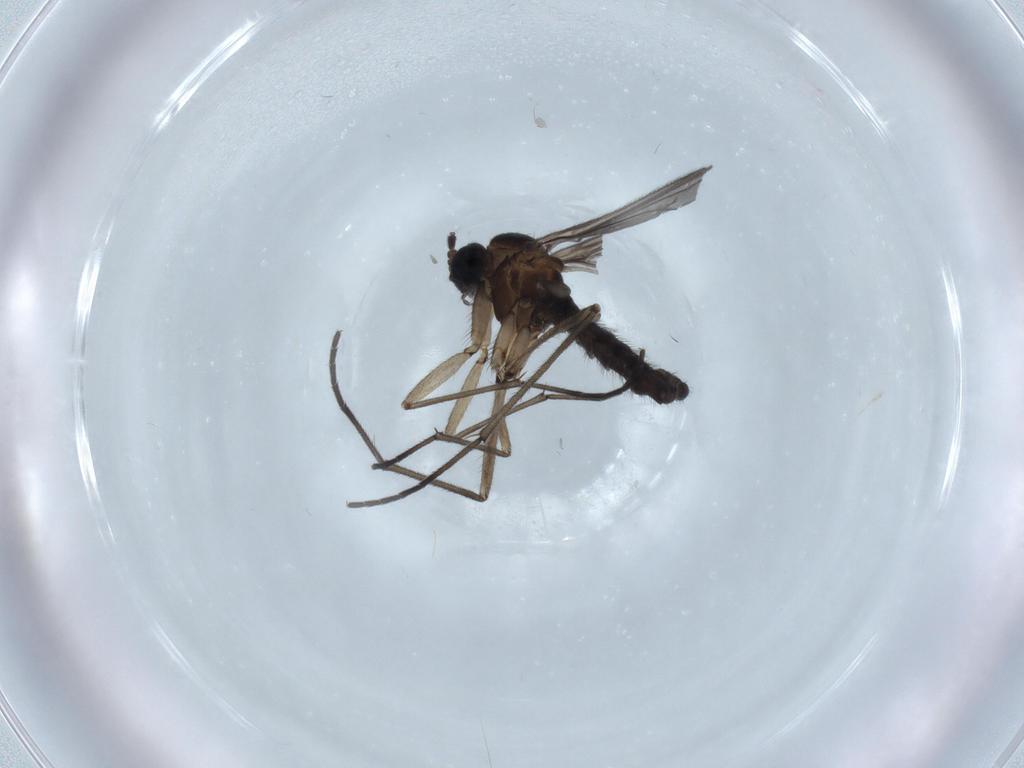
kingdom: Animalia
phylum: Arthropoda
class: Insecta
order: Diptera
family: Sciaridae
